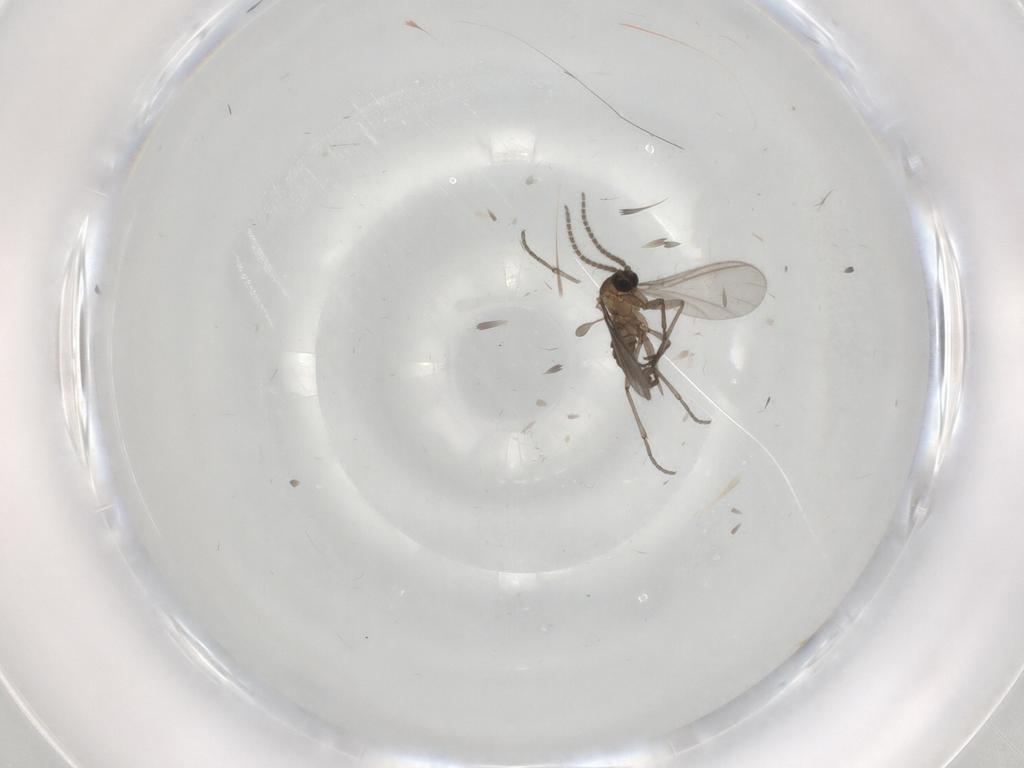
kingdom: Animalia
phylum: Arthropoda
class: Insecta
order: Diptera
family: Sciaridae
